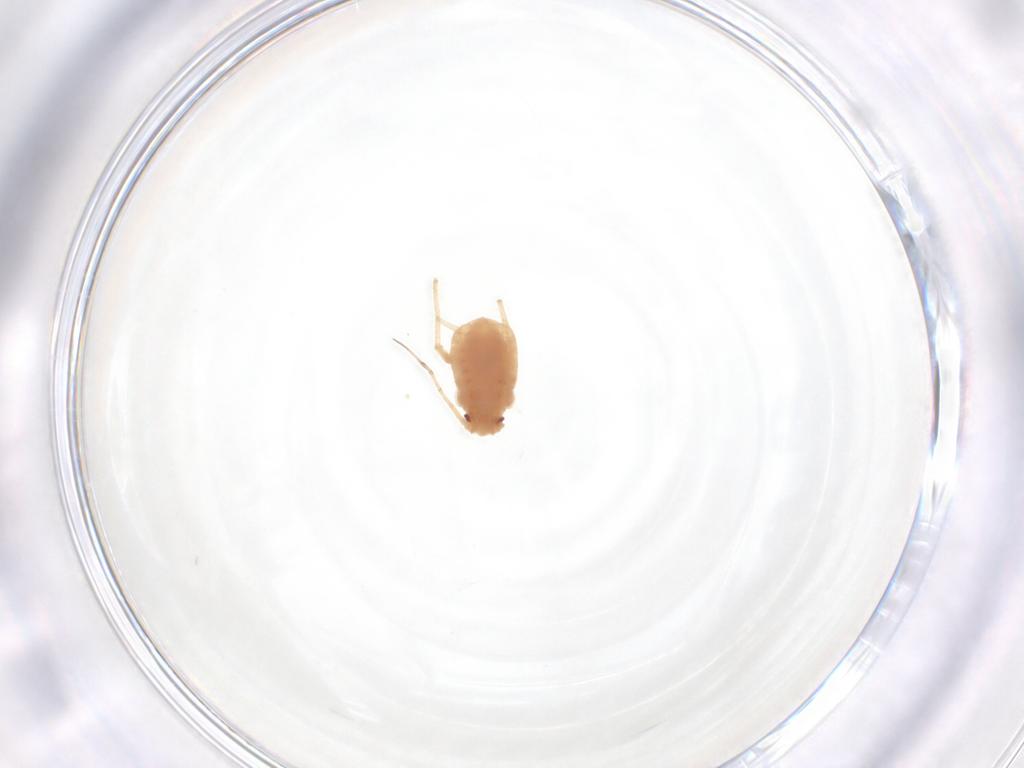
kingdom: Animalia
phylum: Arthropoda
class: Insecta
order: Hemiptera
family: Aphididae
